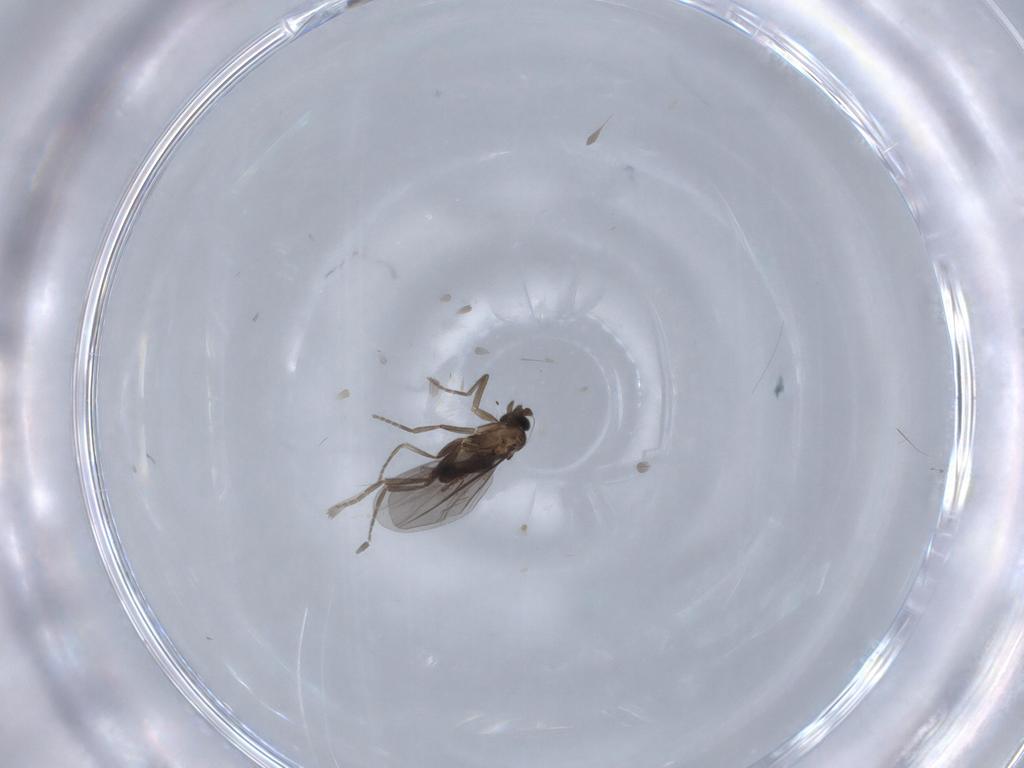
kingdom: Animalia
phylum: Arthropoda
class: Insecta
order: Diptera
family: Phoridae
